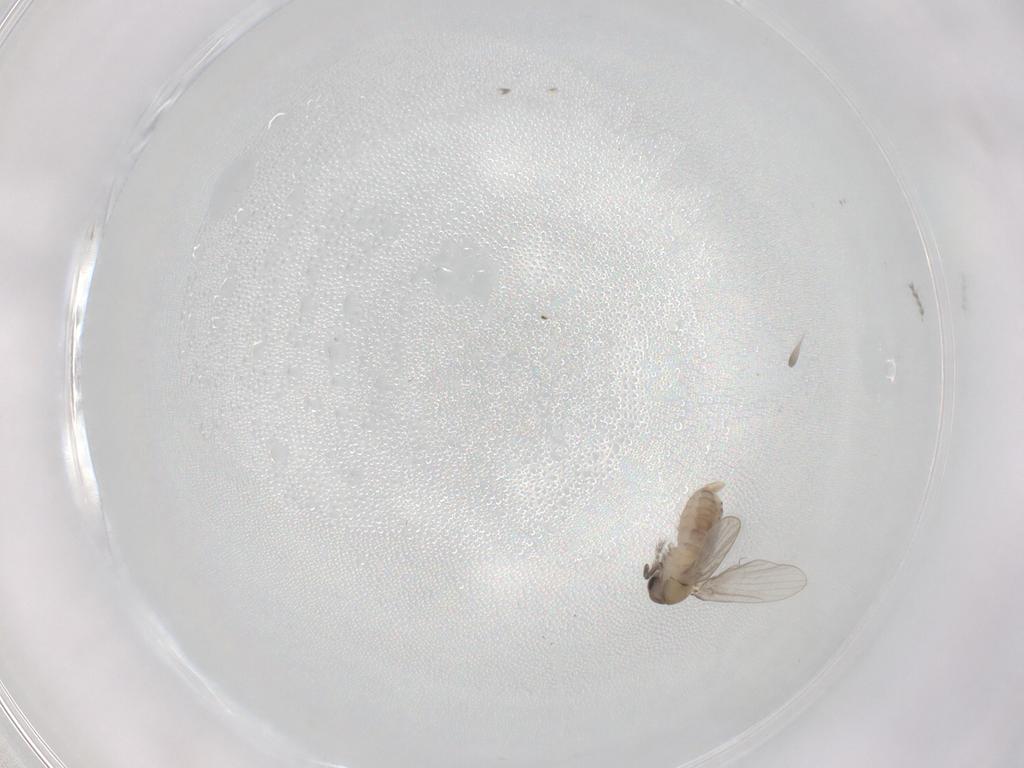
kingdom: Animalia
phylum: Arthropoda
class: Insecta
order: Diptera
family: Psychodidae
